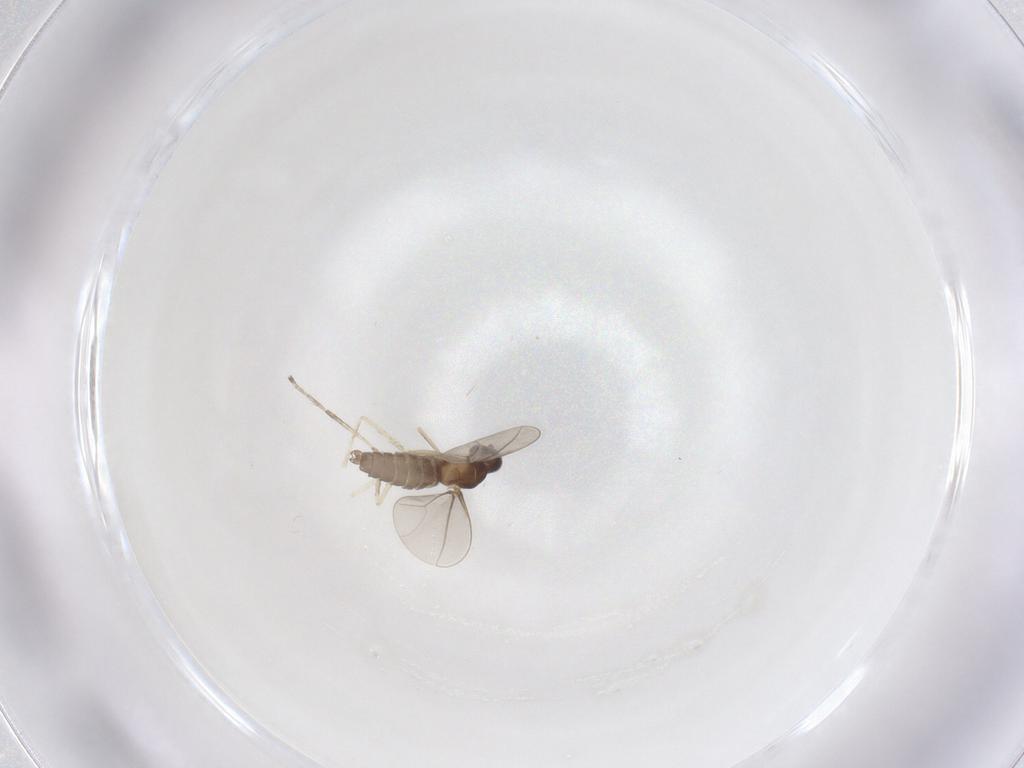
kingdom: Animalia
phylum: Arthropoda
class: Insecta
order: Diptera
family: Cecidomyiidae
